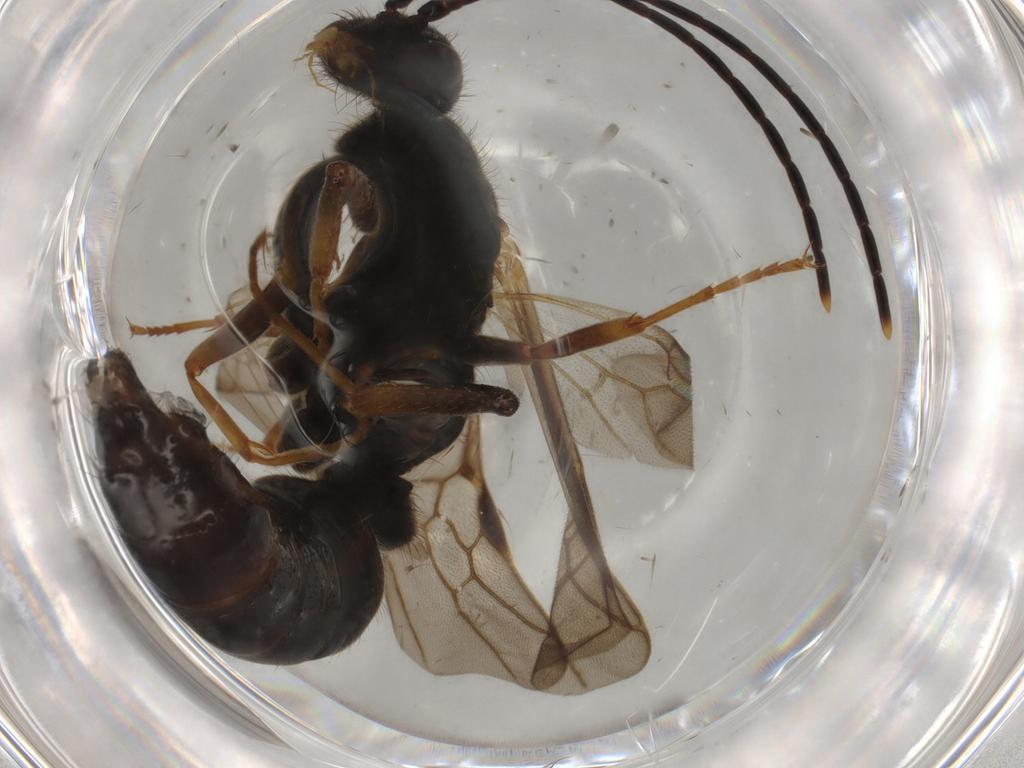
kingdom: Animalia
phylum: Arthropoda
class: Insecta
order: Hymenoptera
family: Formicidae
